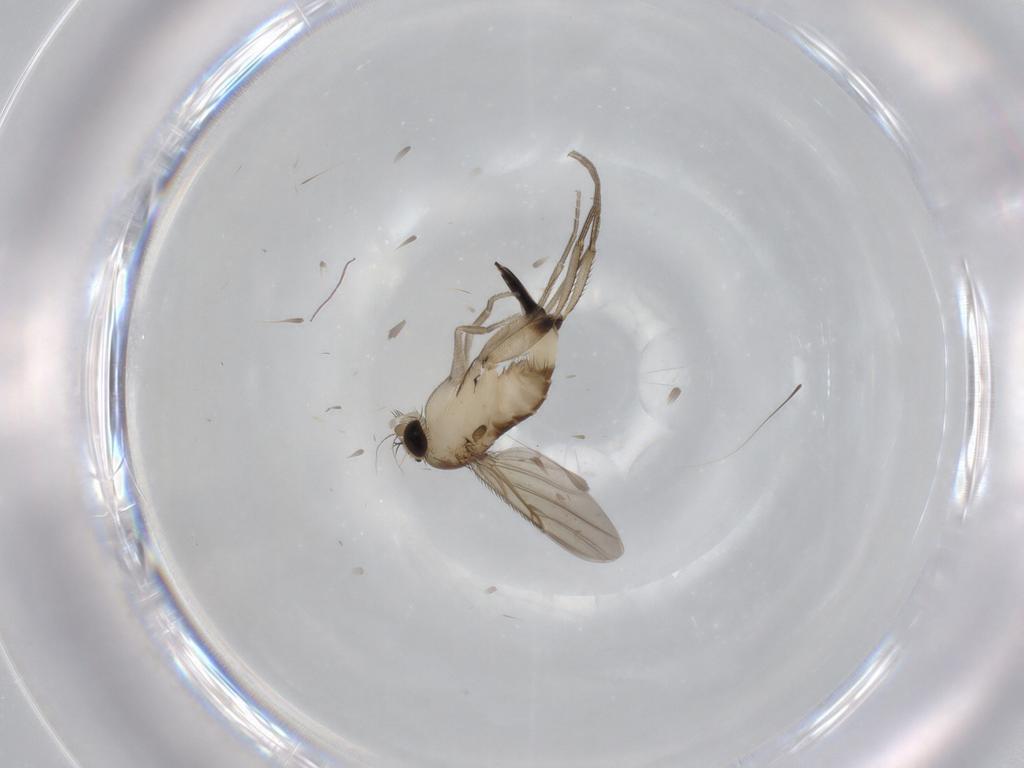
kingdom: Animalia
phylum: Arthropoda
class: Insecta
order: Diptera
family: Phoridae
